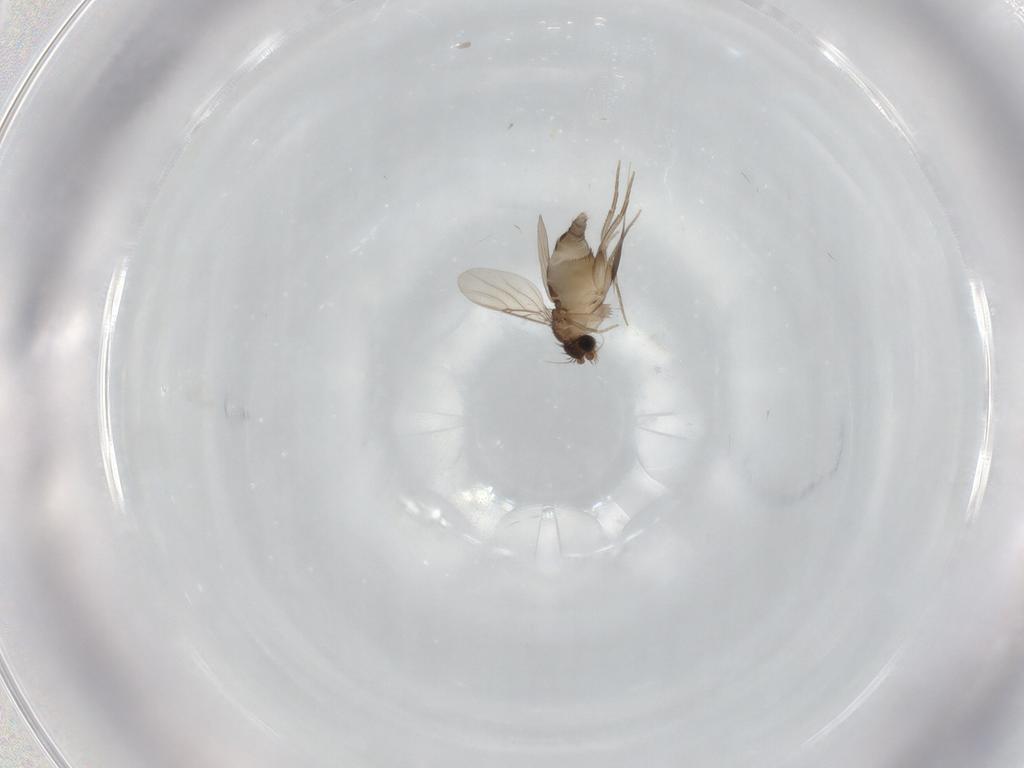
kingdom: Animalia
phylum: Arthropoda
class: Insecta
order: Diptera
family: Phoridae
